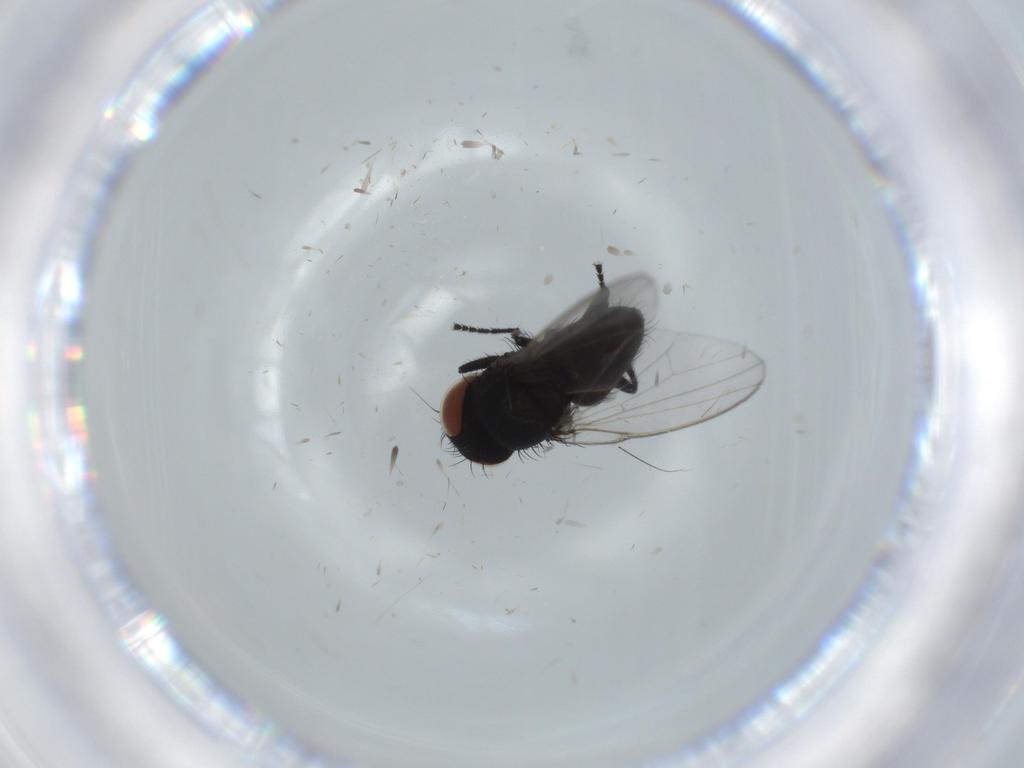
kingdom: Animalia
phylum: Arthropoda
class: Insecta
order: Diptera
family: Milichiidae
